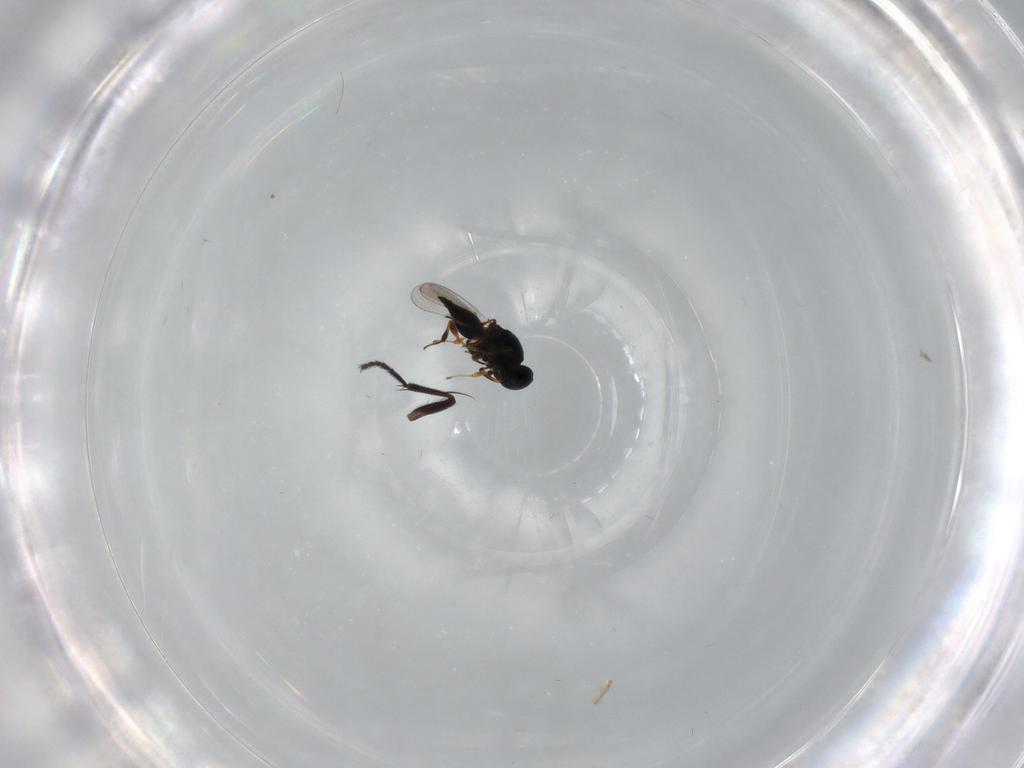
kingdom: Animalia
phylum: Arthropoda
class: Insecta
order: Hymenoptera
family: Platygastridae
